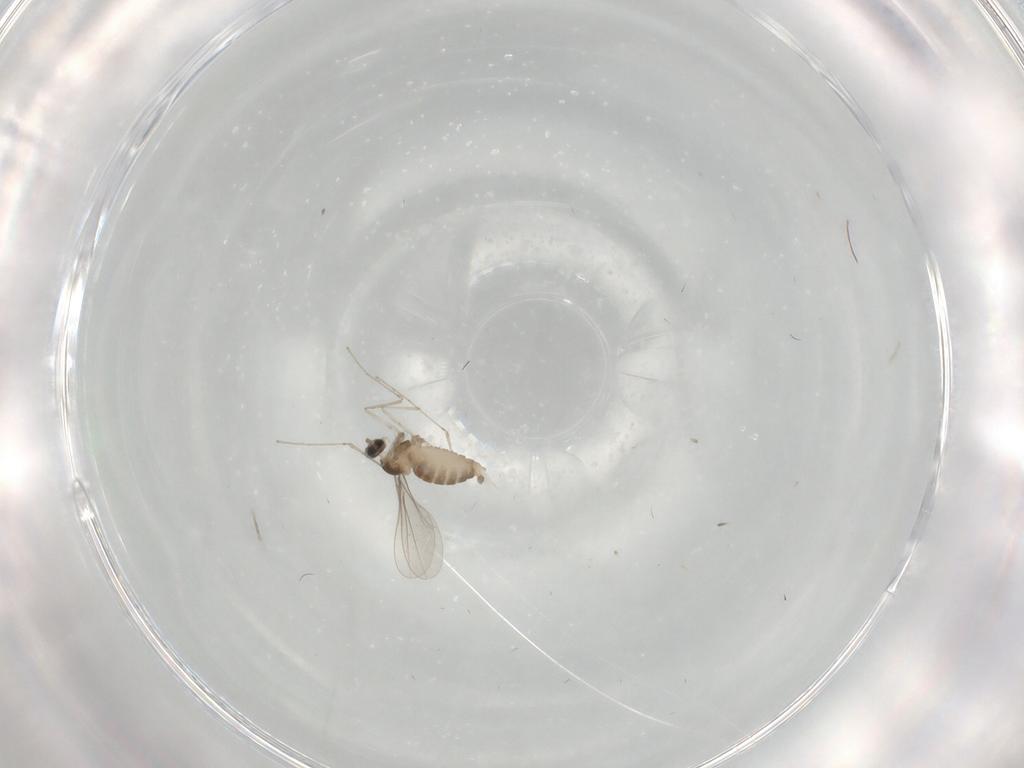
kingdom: Animalia
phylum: Arthropoda
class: Insecta
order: Diptera
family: Cecidomyiidae
